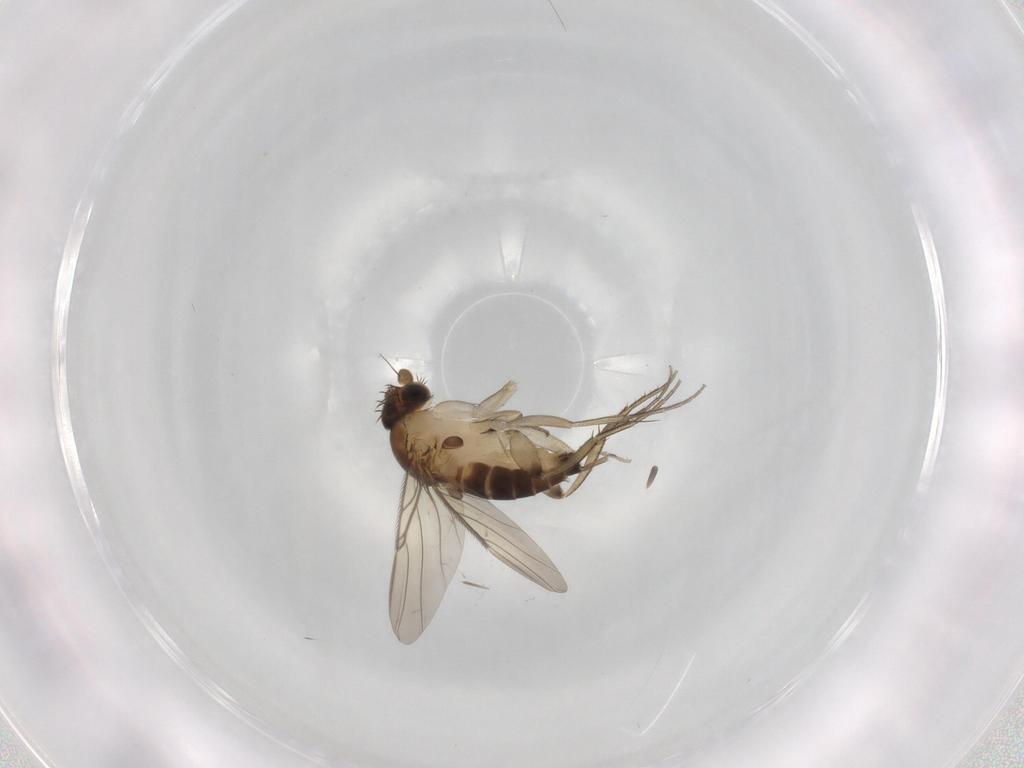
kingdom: Animalia
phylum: Arthropoda
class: Insecta
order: Diptera
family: Phoridae
